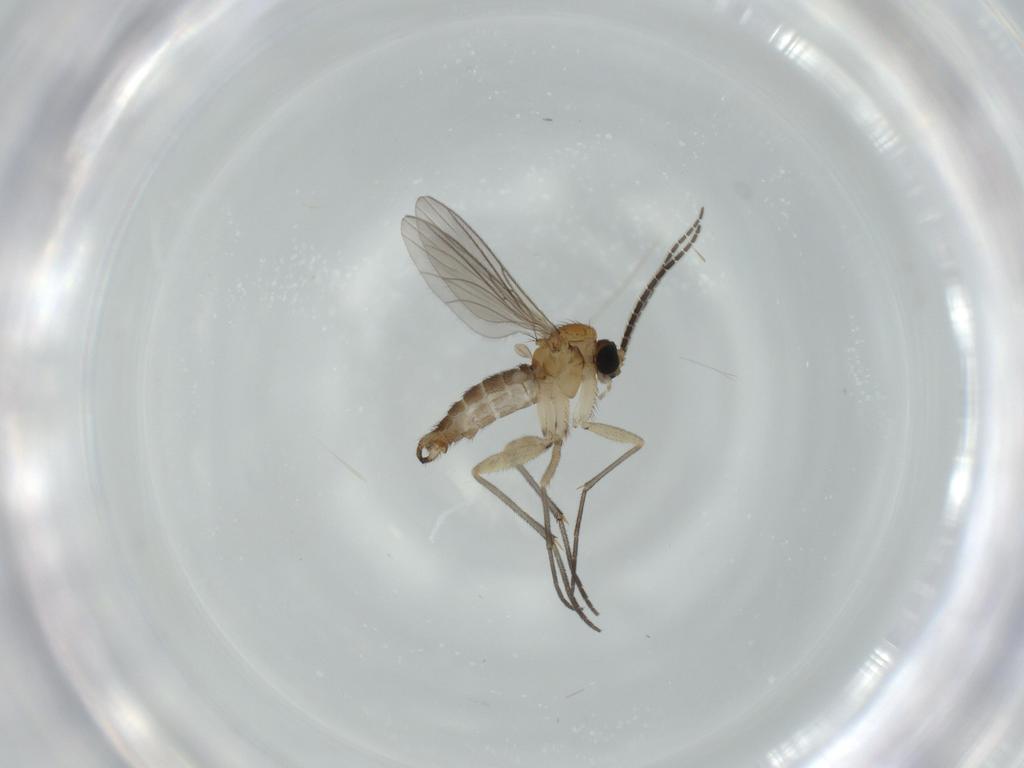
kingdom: Animalia
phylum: Arthropoda
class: Insecta
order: Diptera
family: Sciaridae
